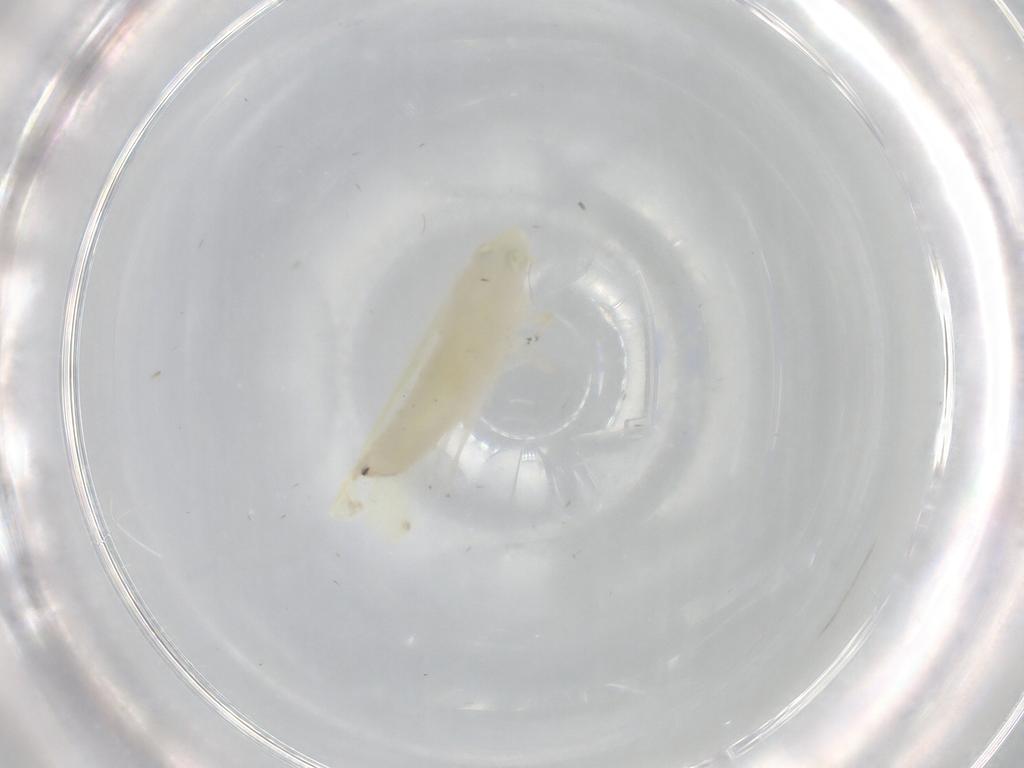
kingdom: Animalia
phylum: Arthropoda
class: Insecta
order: Hemiptera
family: Cicadellidae
